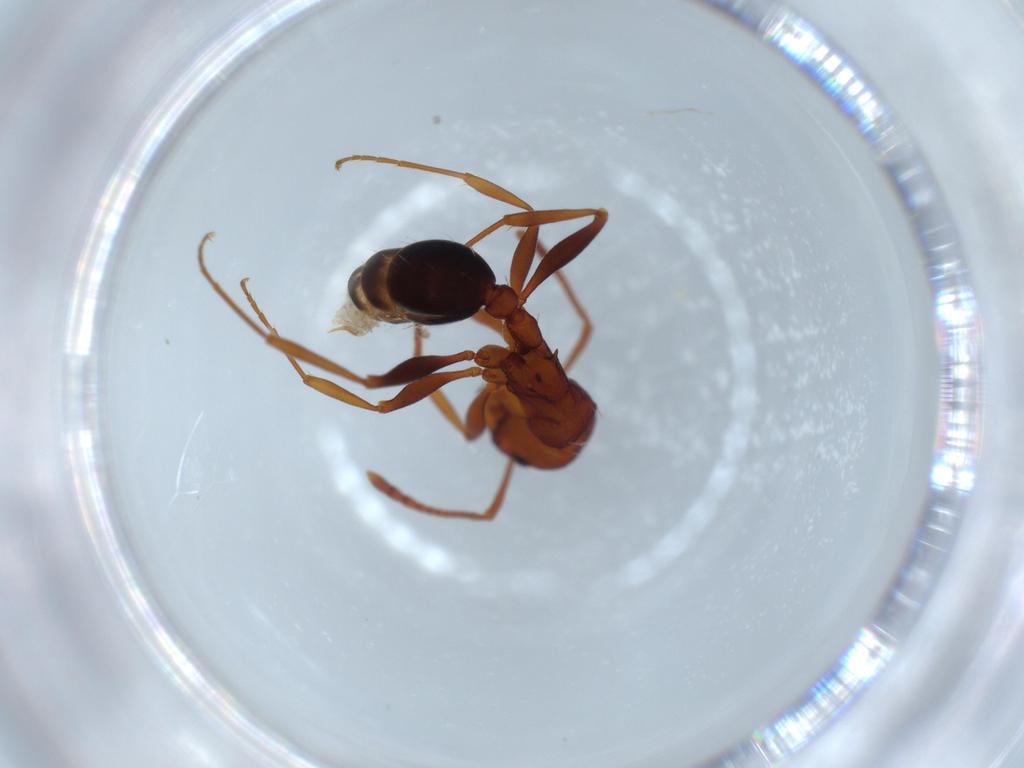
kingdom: Animalia
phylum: Arthropoda
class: Insecta
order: Hymenoptera
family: Formicidae
